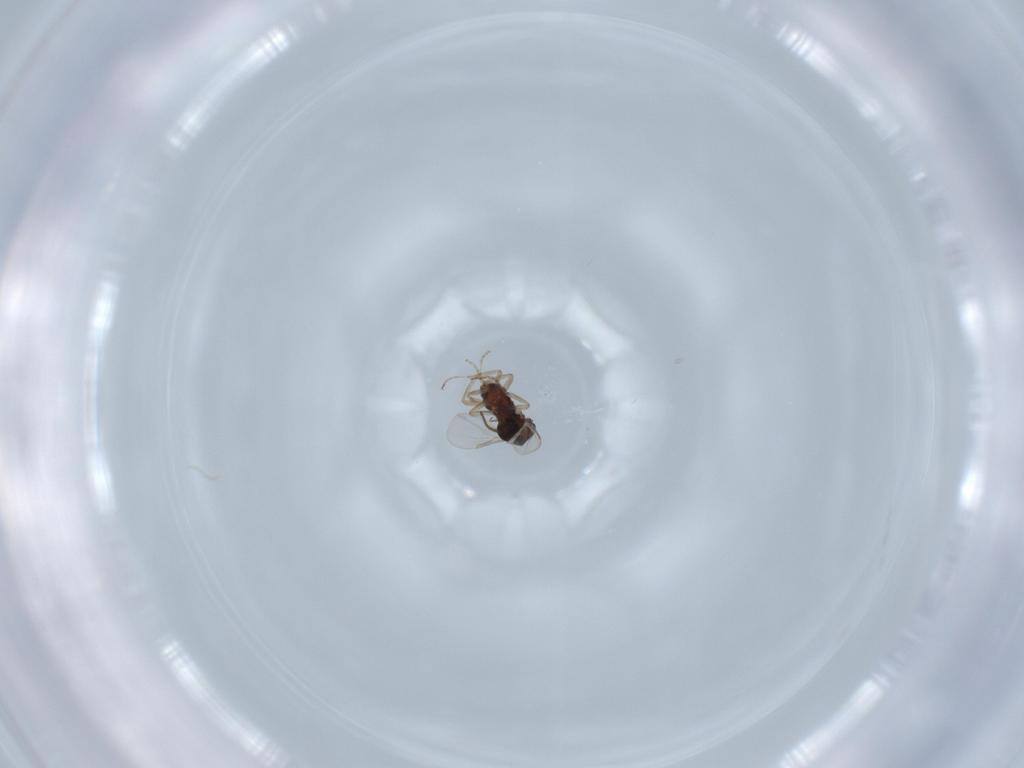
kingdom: Animalia
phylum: Arthropoda
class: Insecta
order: Diptera
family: Ceratopogonidae
